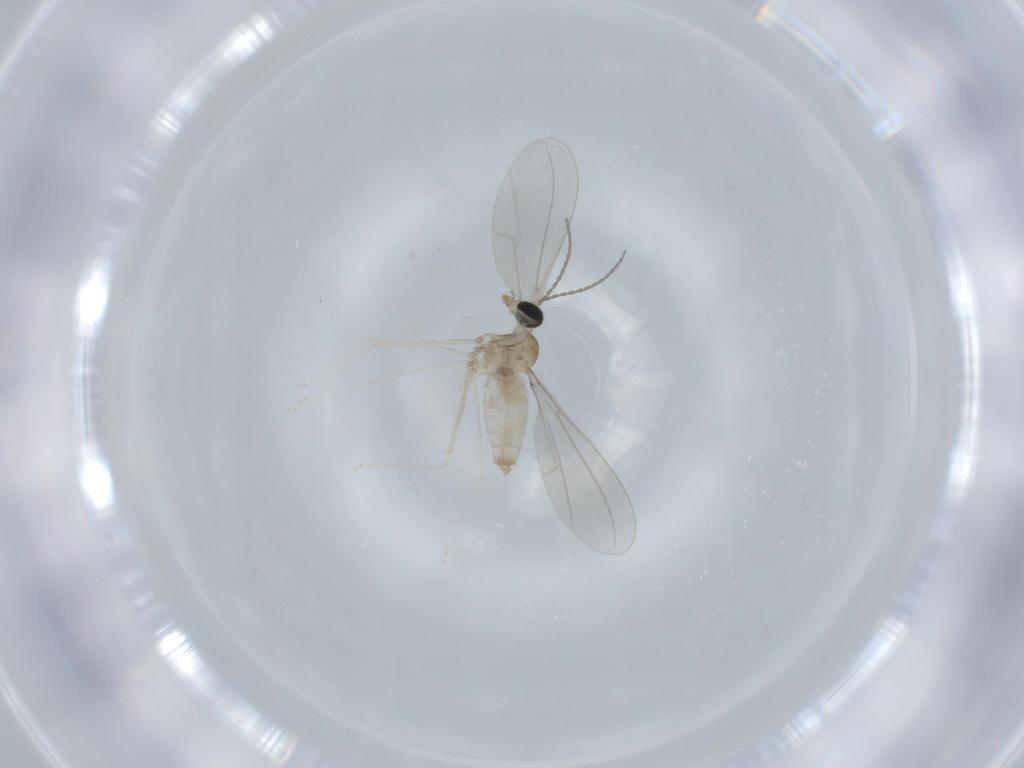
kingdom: Animalia
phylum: Arthropoda
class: Insecta
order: Diptera
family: Cecidomyiidae
